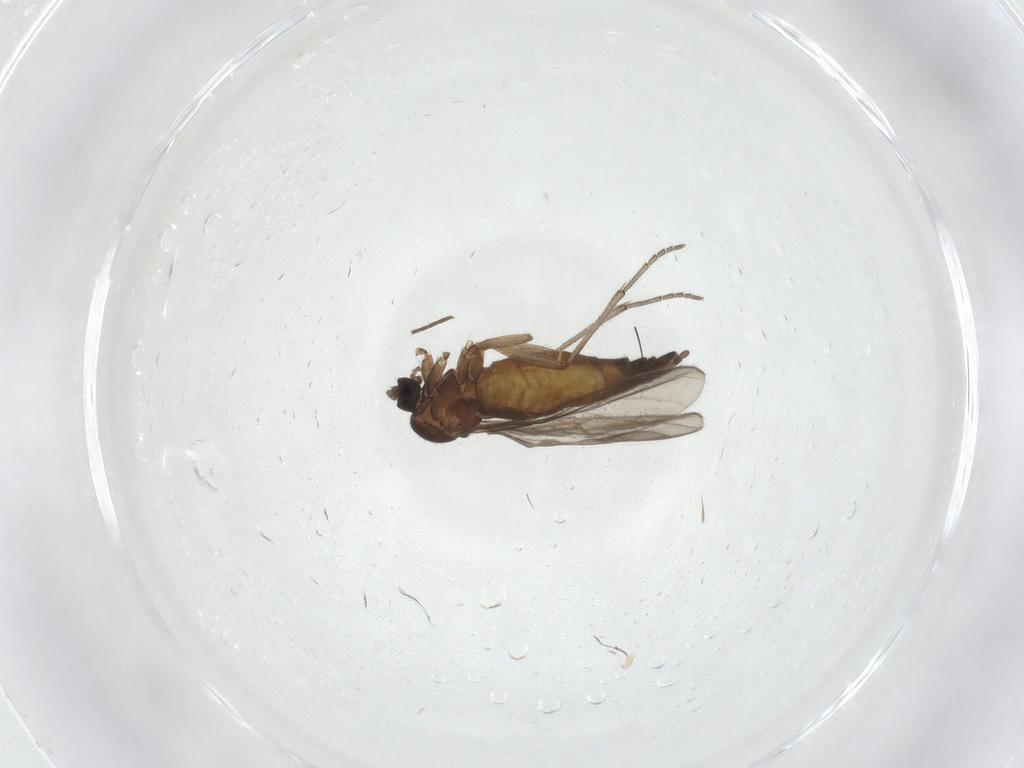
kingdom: Animalia
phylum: Arthropoda
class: Insecta
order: Diptera
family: Sciaridae
